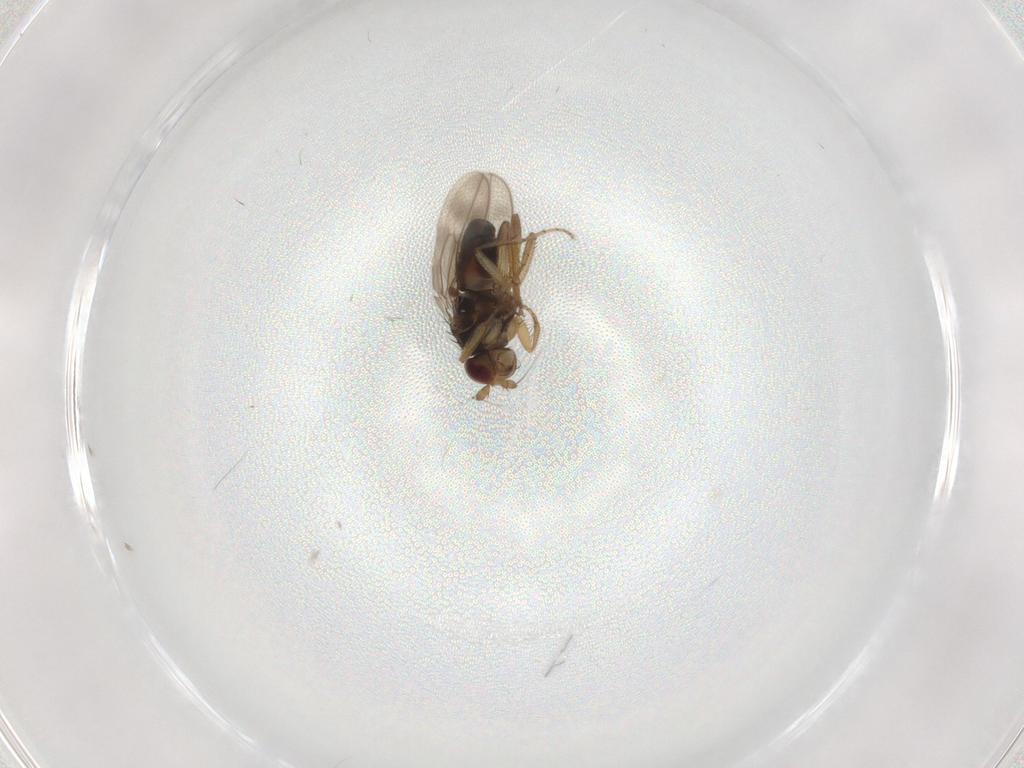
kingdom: Animalia
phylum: Arthropoda
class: Insecta
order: Diptera
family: Sphaeroceridae
